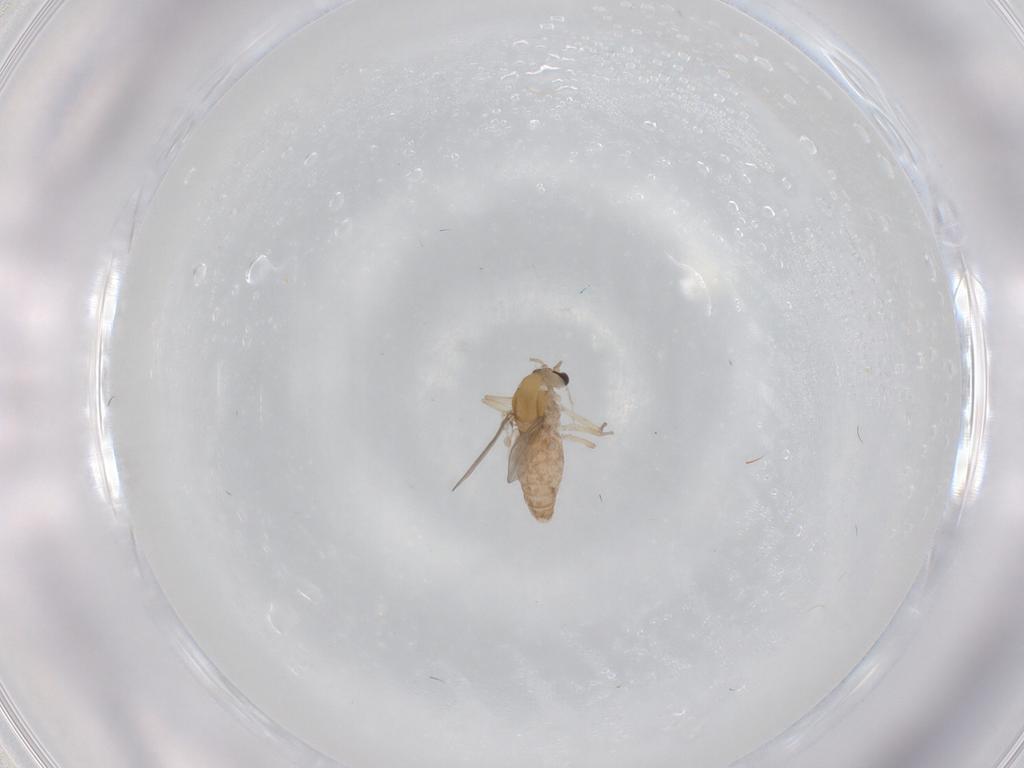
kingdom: Animalia
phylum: Arthropoda
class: Insecta
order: Diptera
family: Chironomidae
